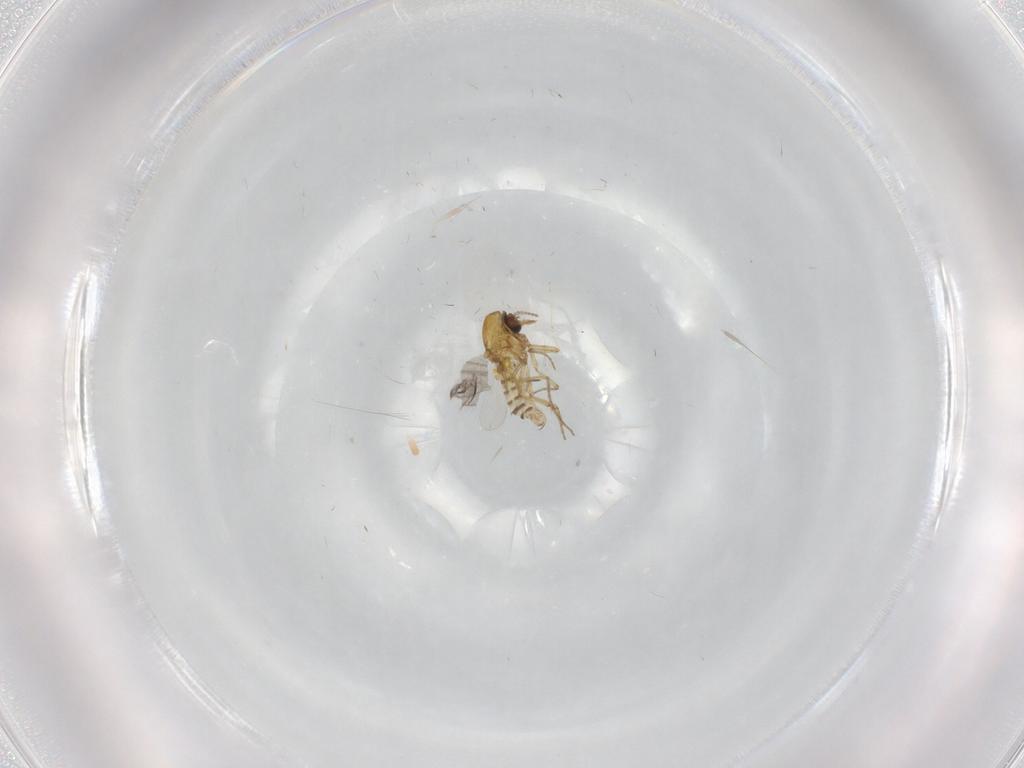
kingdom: Animalia
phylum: Arthropoda
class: Insecta
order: Diptera
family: Ceratopogonidae
